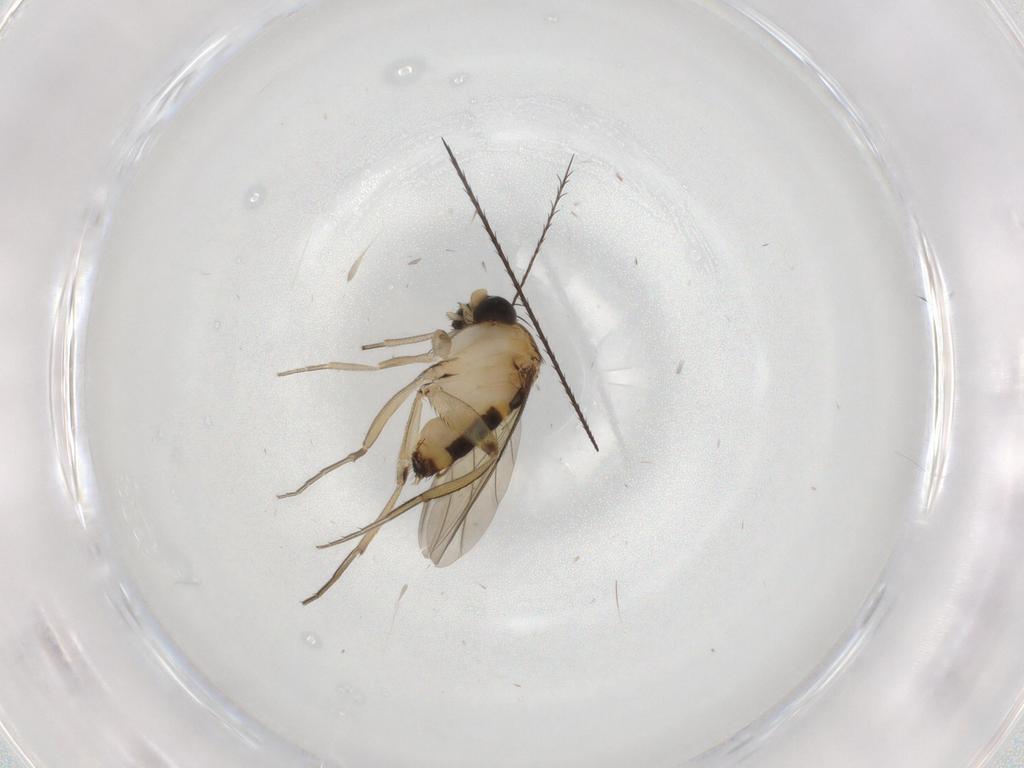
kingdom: Animalia
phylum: Arthropoda
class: Insecta
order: Diptera
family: Phoridae
